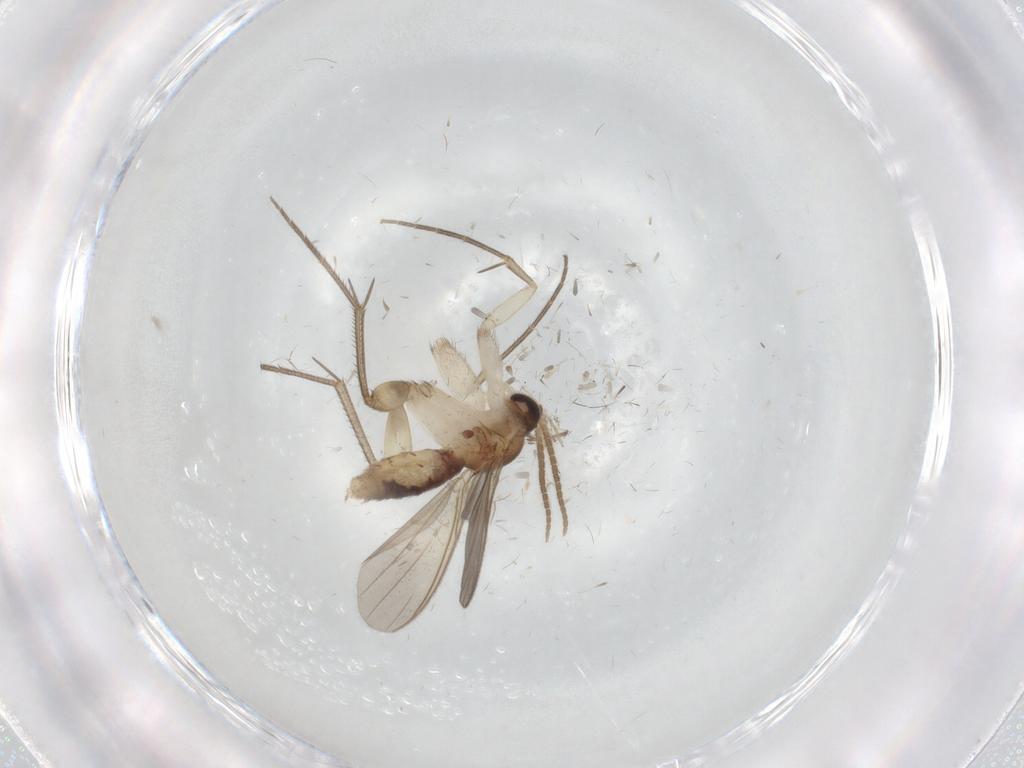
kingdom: Animalia
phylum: Arthropoda
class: Insecta
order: Diptera
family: Mycetophilidae
